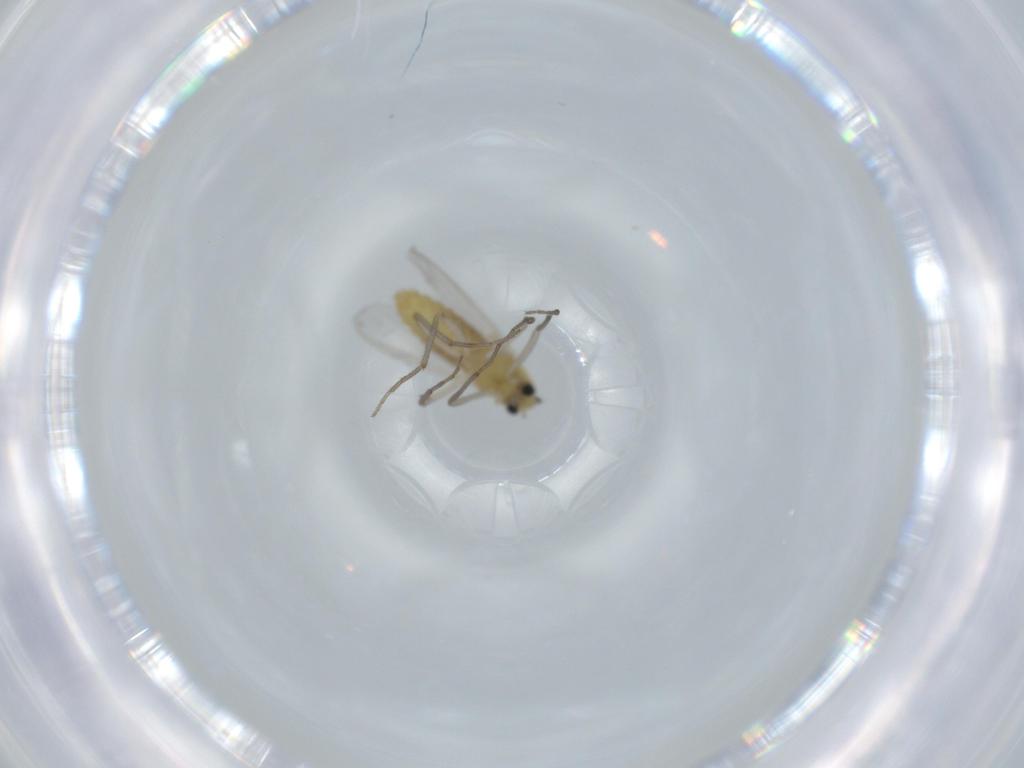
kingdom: Animalia
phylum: Arthropoda
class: Insecta
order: Diptera
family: Chironomidae
